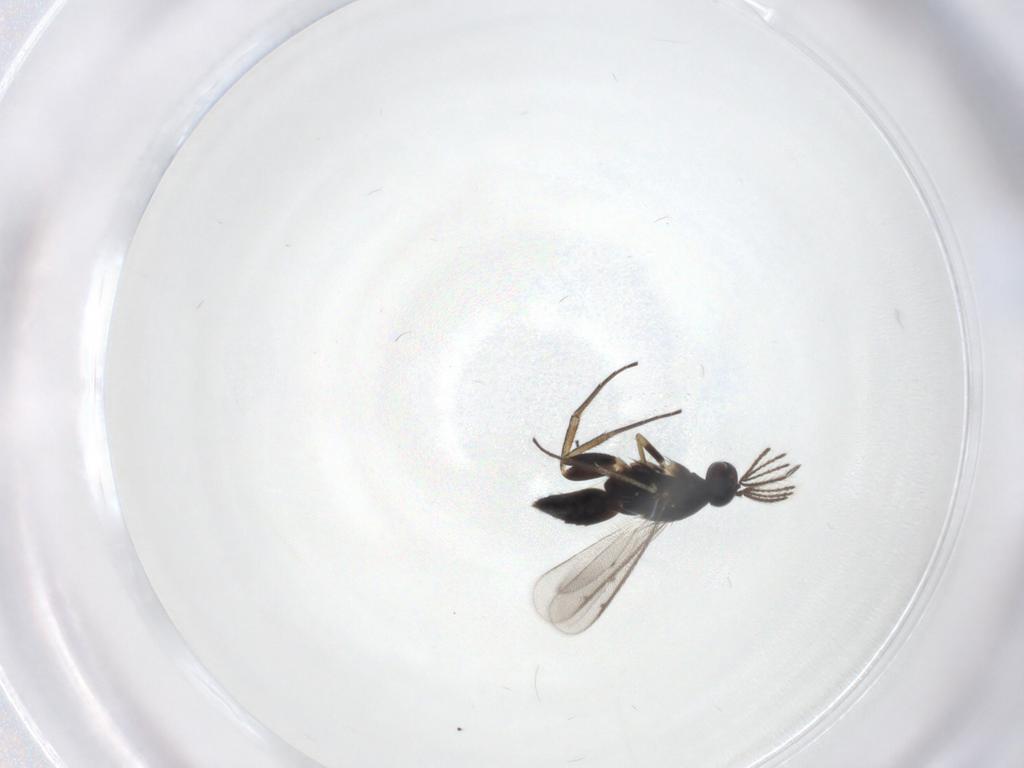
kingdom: Animalia
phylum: Arthropoda
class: Insecta
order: Hymenoptera
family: Eulophidae
